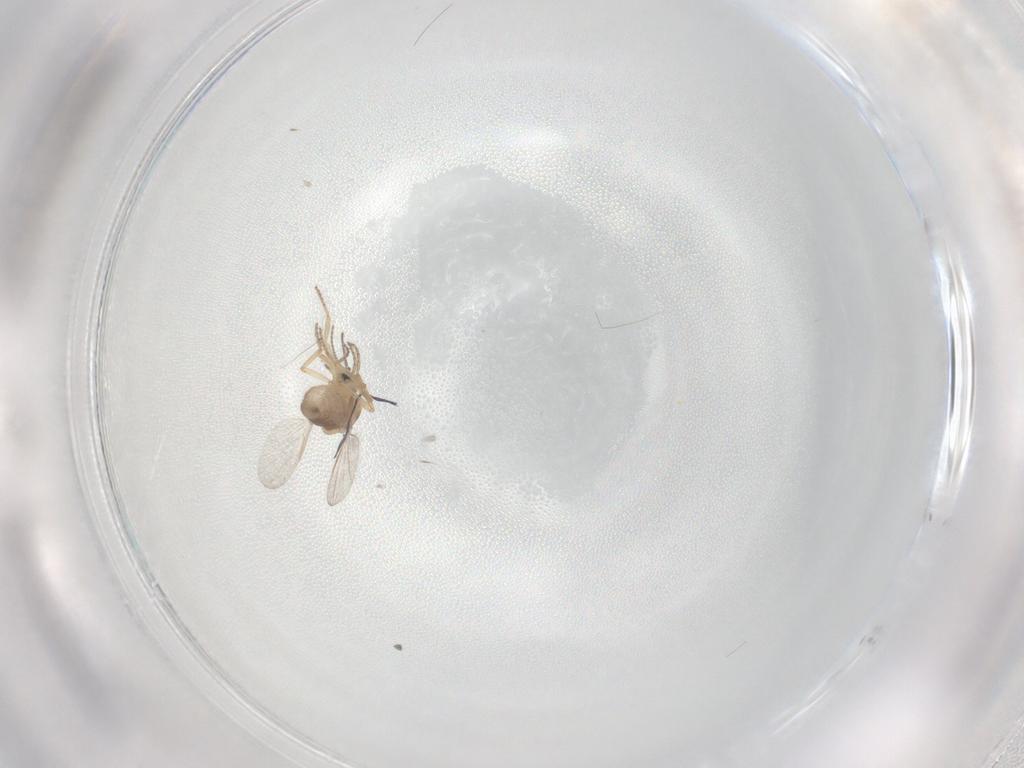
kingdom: Animalia
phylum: Arthropoda
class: Insecta
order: Diptera
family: Ceratopogonidae
